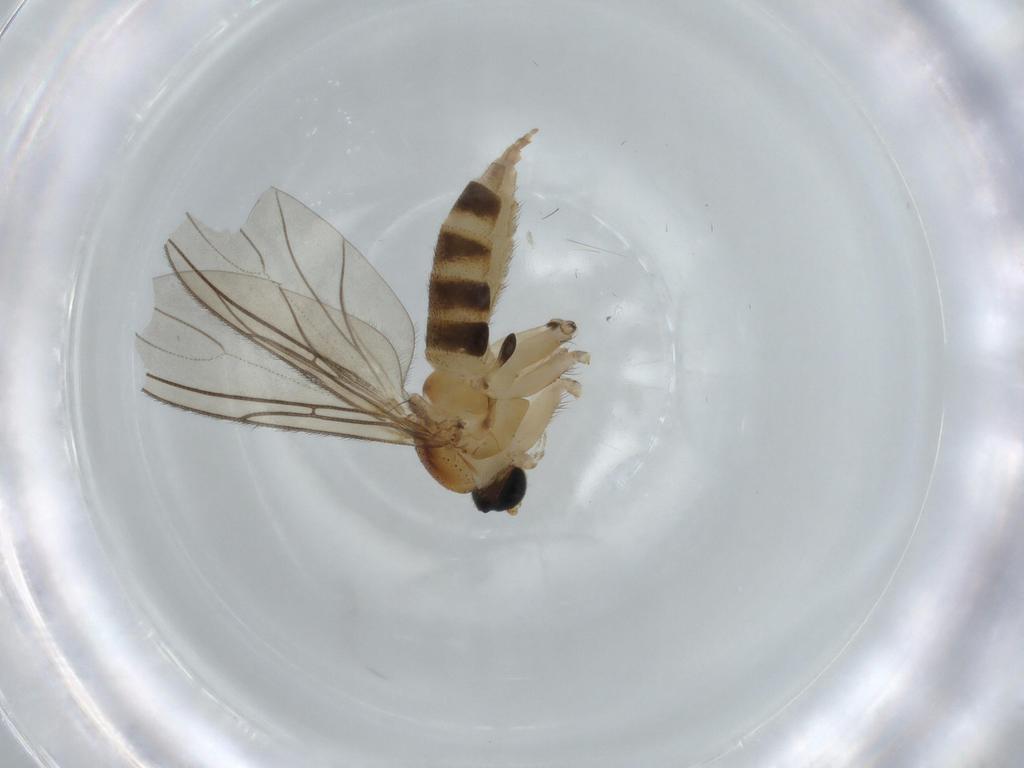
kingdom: Animalia
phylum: Arthropoda
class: Insecta
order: Diptera
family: Sciaridae
